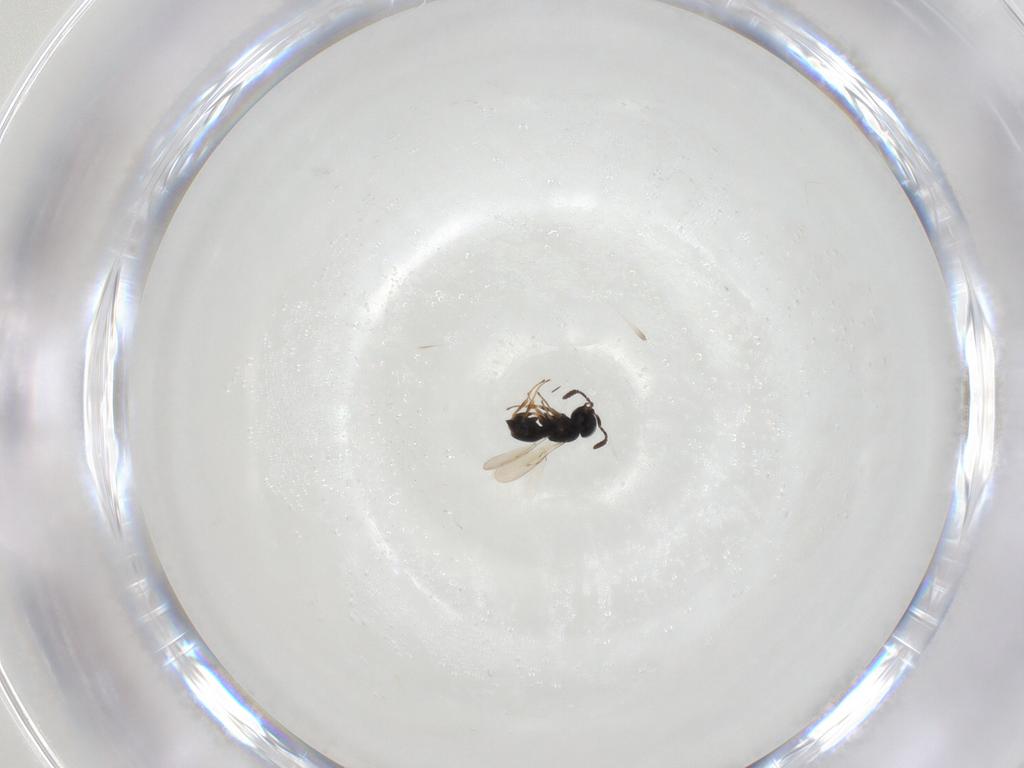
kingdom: Animalia
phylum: Arthropoda
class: Insecta
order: Hymenoptera
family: Scelionidae
